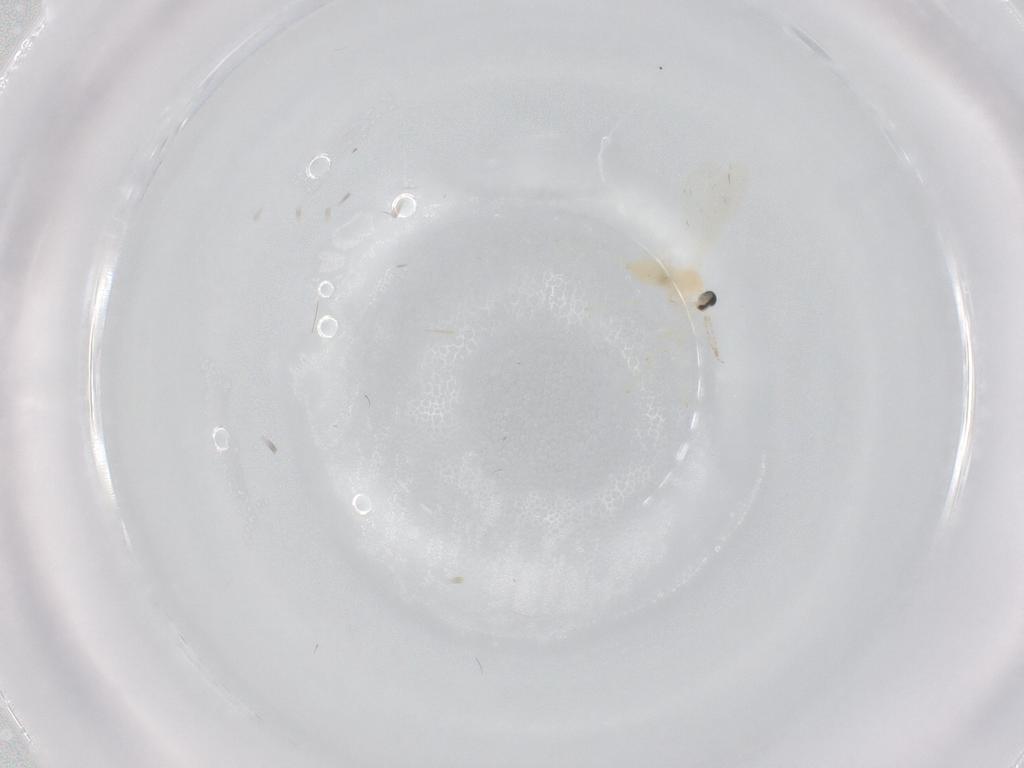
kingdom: Animalia
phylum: Arthropoda
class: Insecta
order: Diptera
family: Cecidomyiidae
